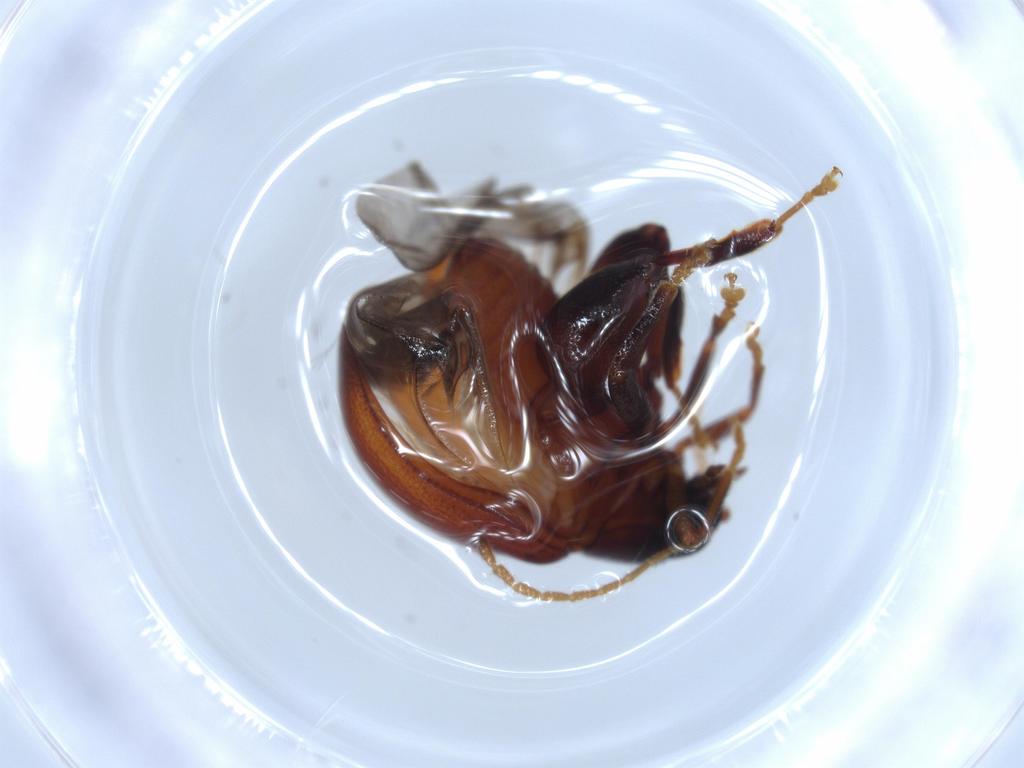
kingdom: Animalia
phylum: Arthropoda
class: Insecta
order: Coleoptera
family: Chrysomelidae
